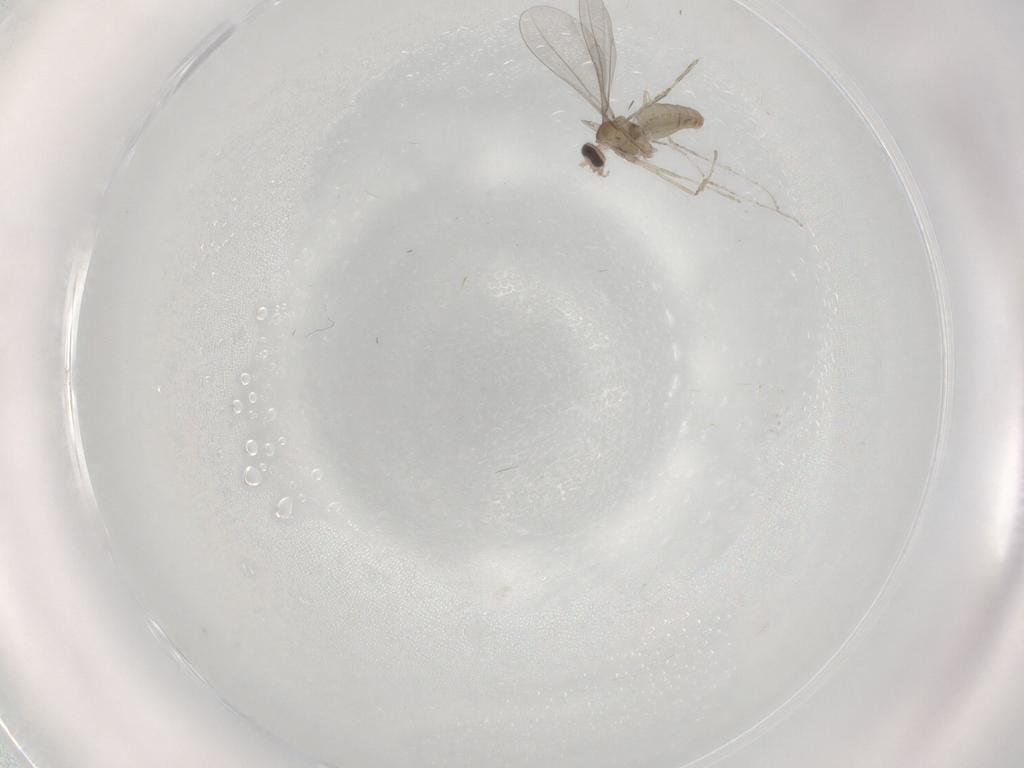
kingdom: Animalia
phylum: Arthropoda
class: Insecta
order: Diptera
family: Cecidomyiidae
